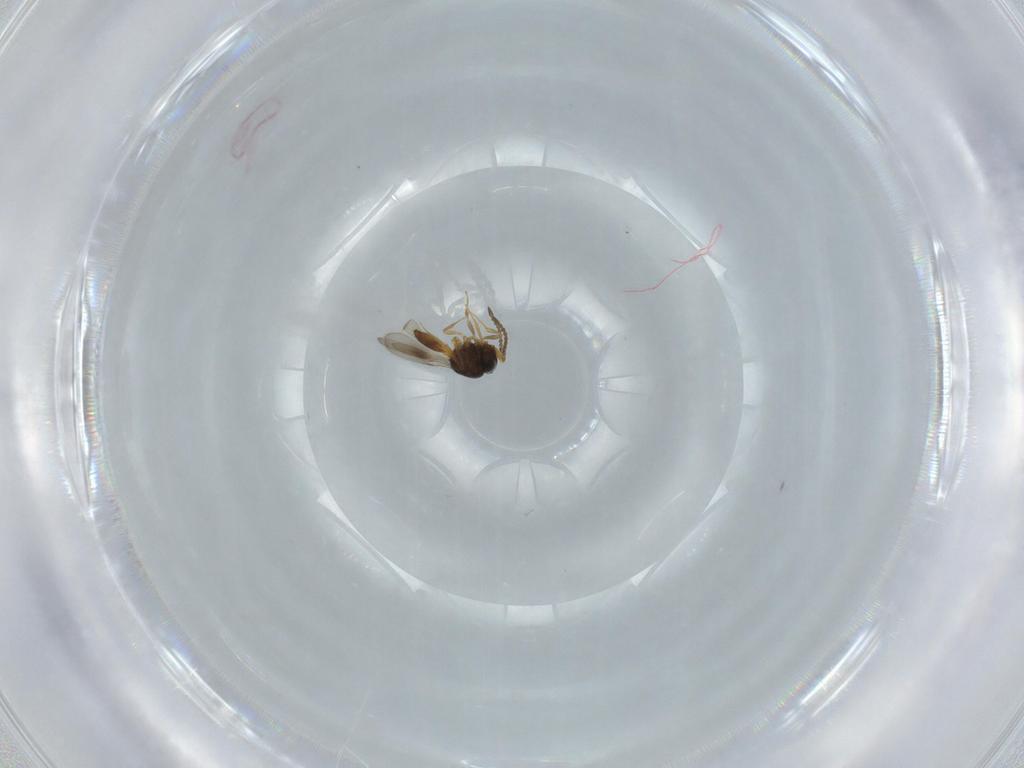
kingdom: Animalia
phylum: Arthropoda
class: Insecta
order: Hymenoptera
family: Scelionidae
